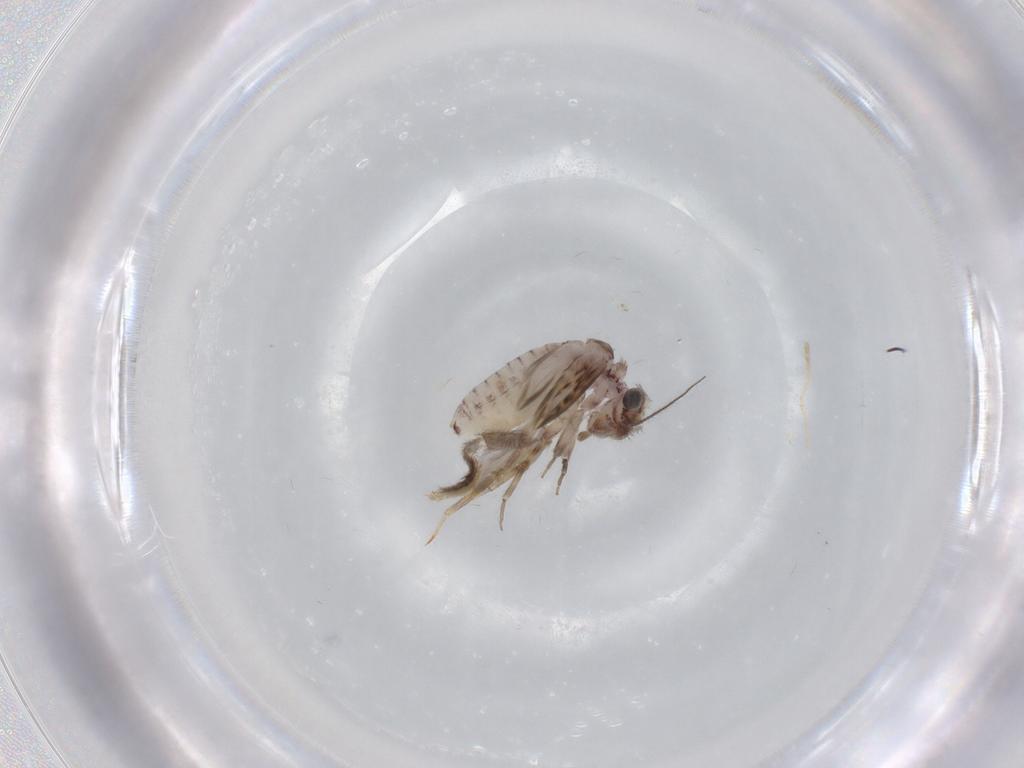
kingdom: Animalia
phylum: Arthropoda
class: Insecta
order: Psocodea
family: Lepidopsocidae
